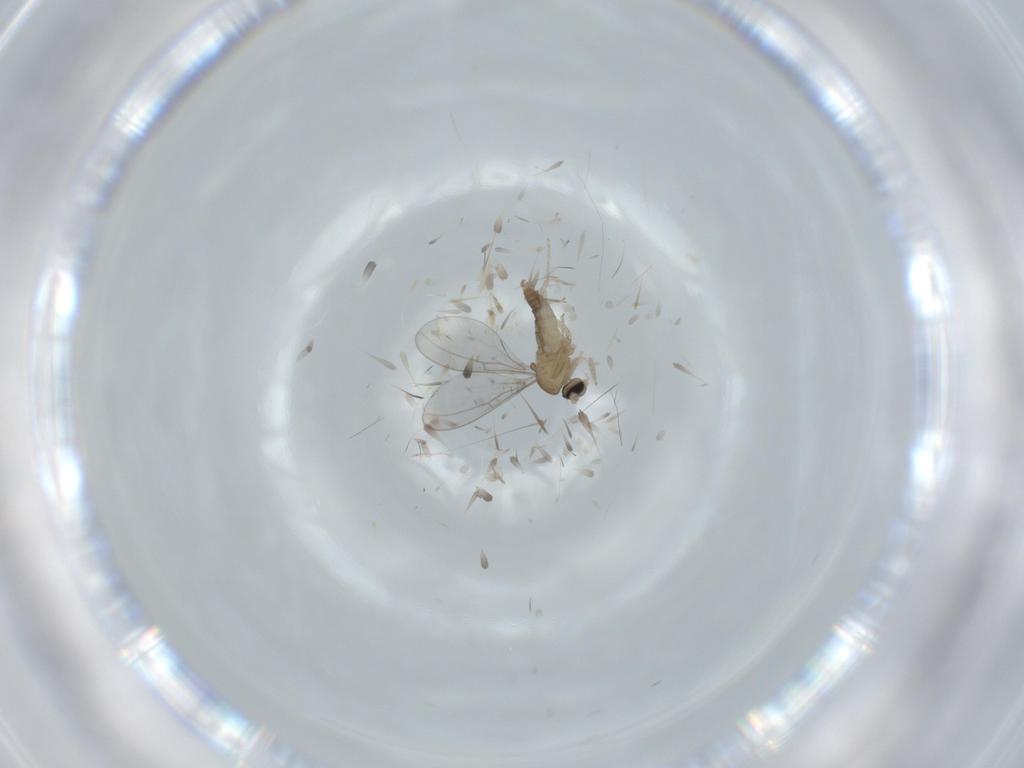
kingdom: Animalia
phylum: Arthropoda
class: Insecta
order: Diptera
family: Cecidomyiidae
